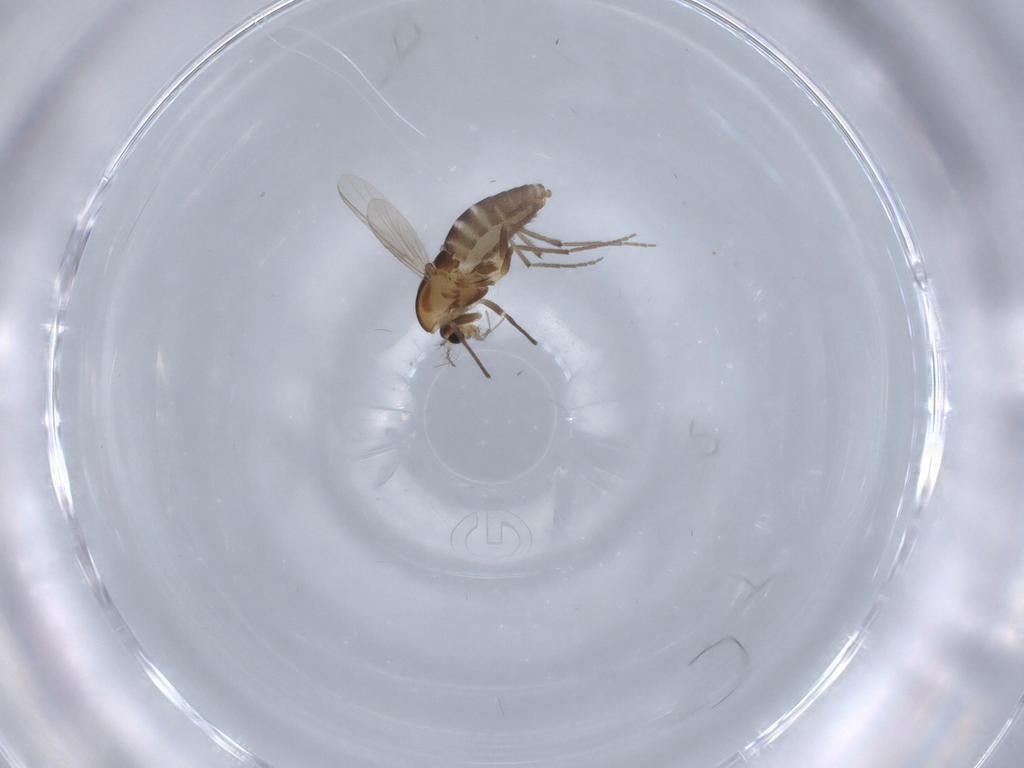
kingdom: Animalia
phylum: Arthropoda
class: Insecta
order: Diptera
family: Chironomidae
